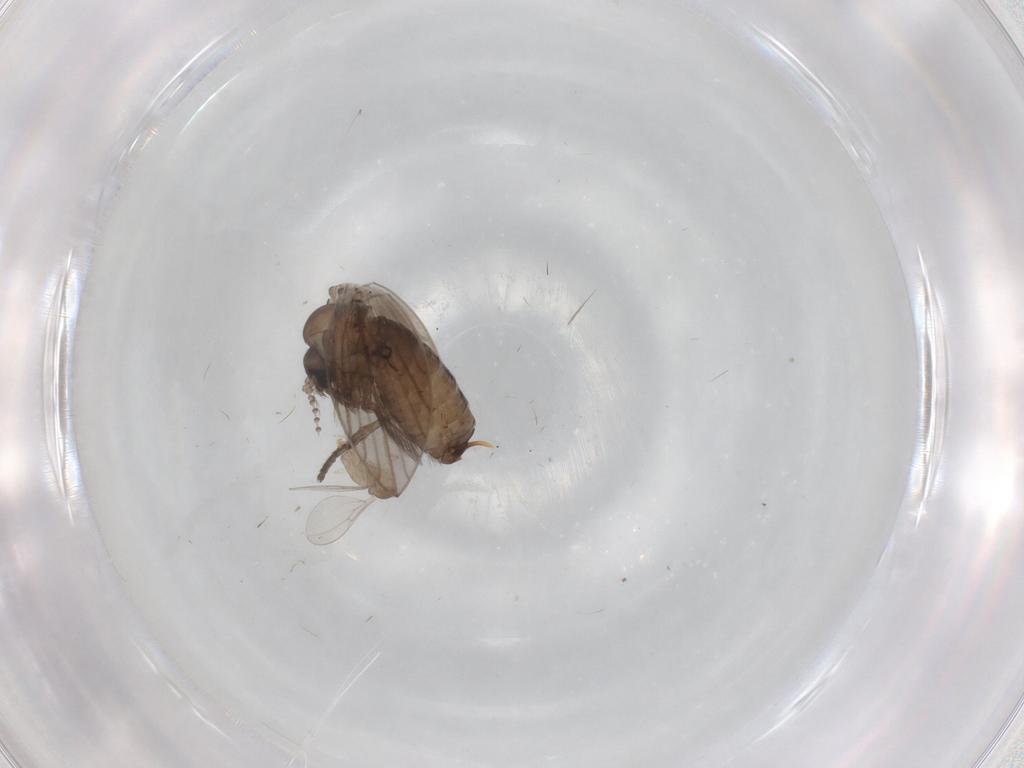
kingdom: Animalia
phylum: Arthropoda
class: Insecta
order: Diptera
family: Cecidomyiidae
